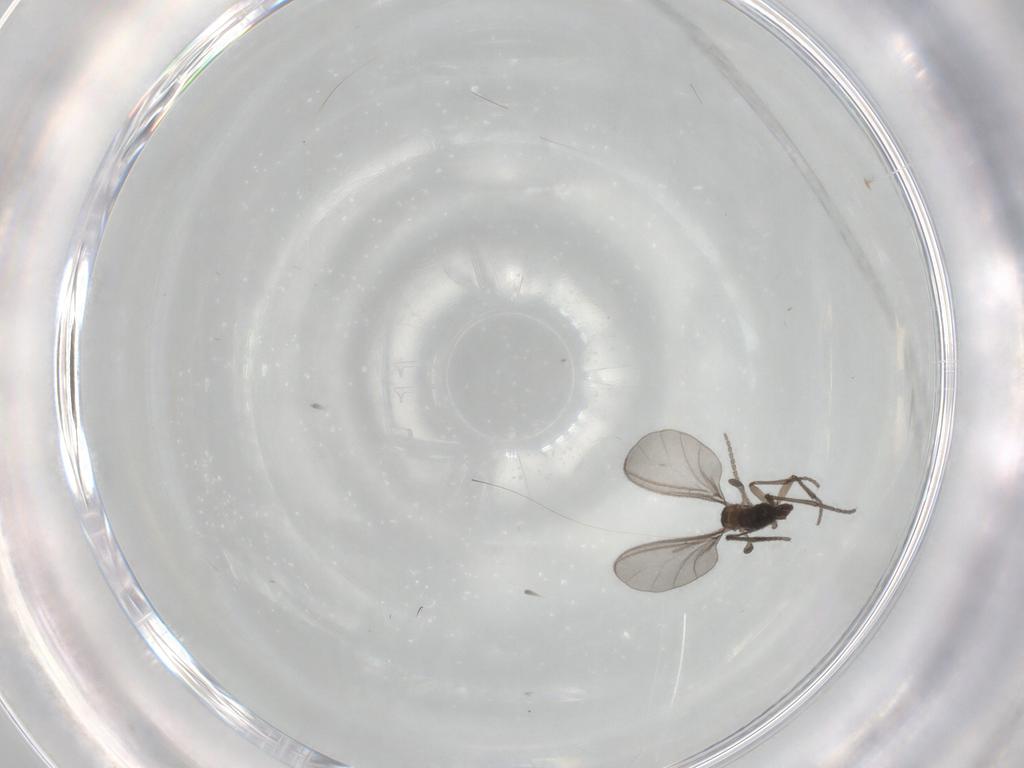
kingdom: Animalia
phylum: Arthropoda
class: Insecta
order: Diptera
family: Sciaridae
